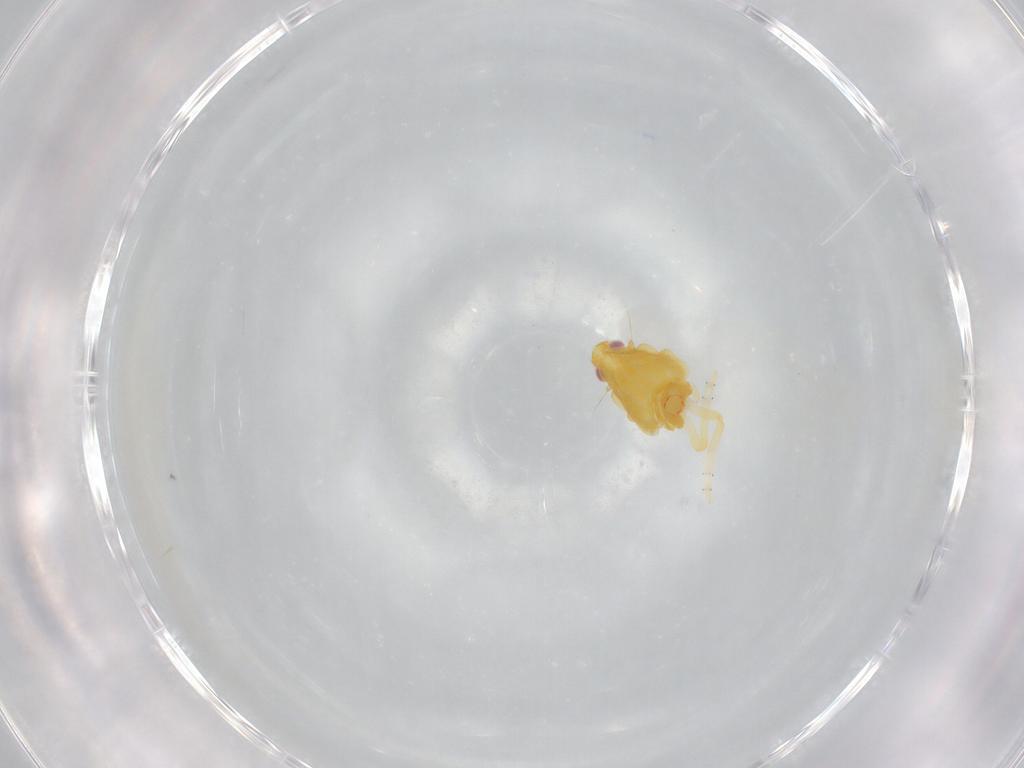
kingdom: Animalia
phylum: Arthropoda
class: Insecta
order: Hemiptera
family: Tropiduchidae
